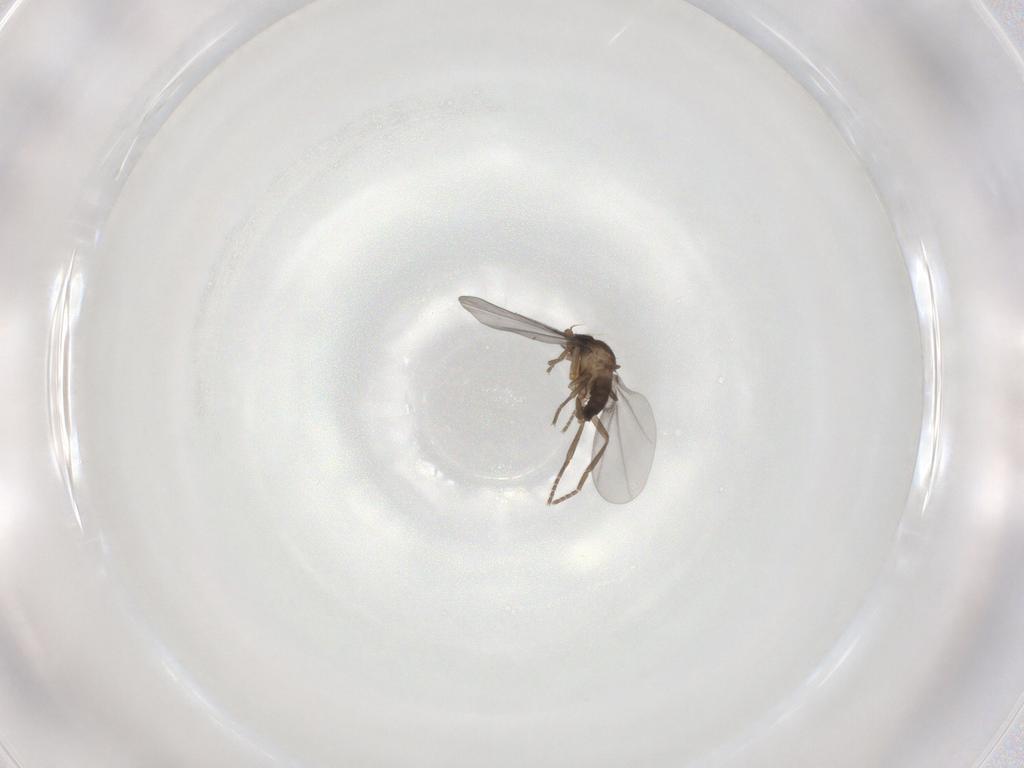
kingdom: Animalia
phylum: Arthropoda
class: Insecta
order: Diptera
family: Phoridae
